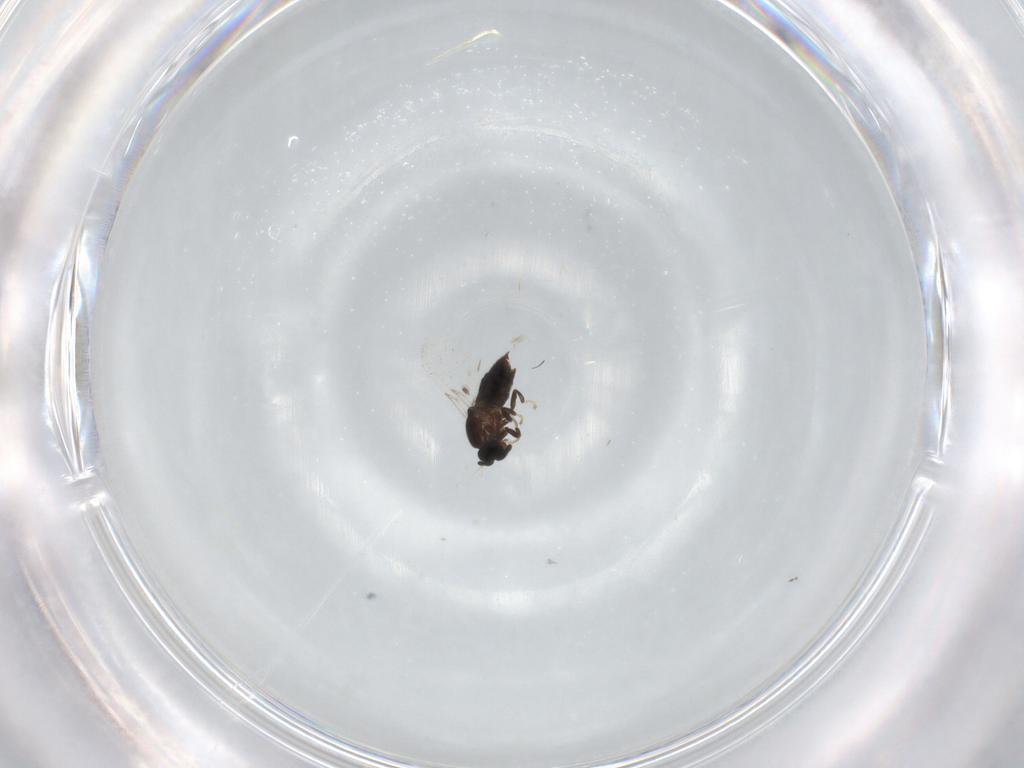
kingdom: Animalia
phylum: Arthropoda
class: Insecta
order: Diptera
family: Scatopsidae
